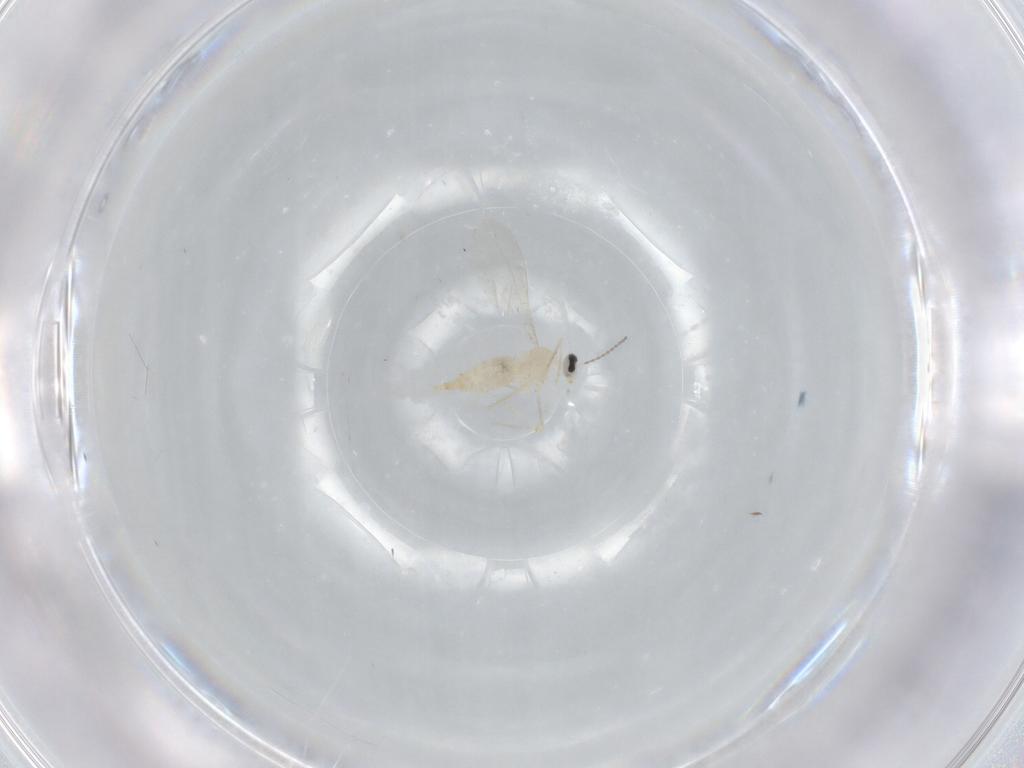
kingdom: Animalia
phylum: Arthropoda
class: Insecta
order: Diptera
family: Cecidomyiidae
